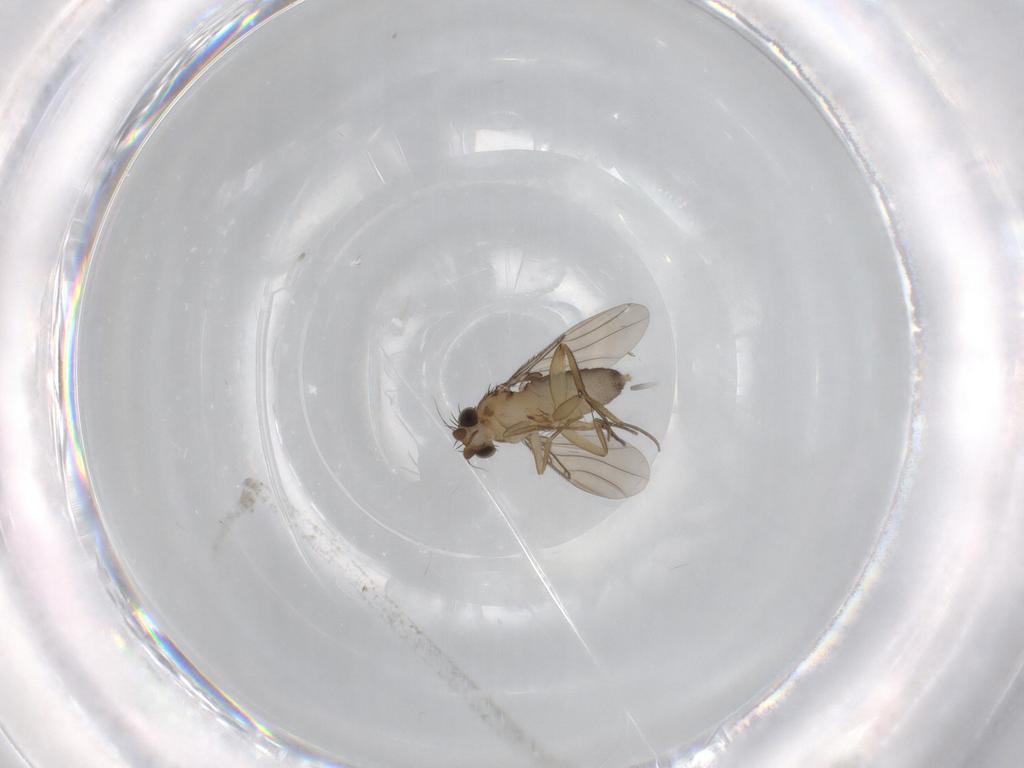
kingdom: Animalia
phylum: Arthropoda
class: Insecta
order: Diptera
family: Phoridae
